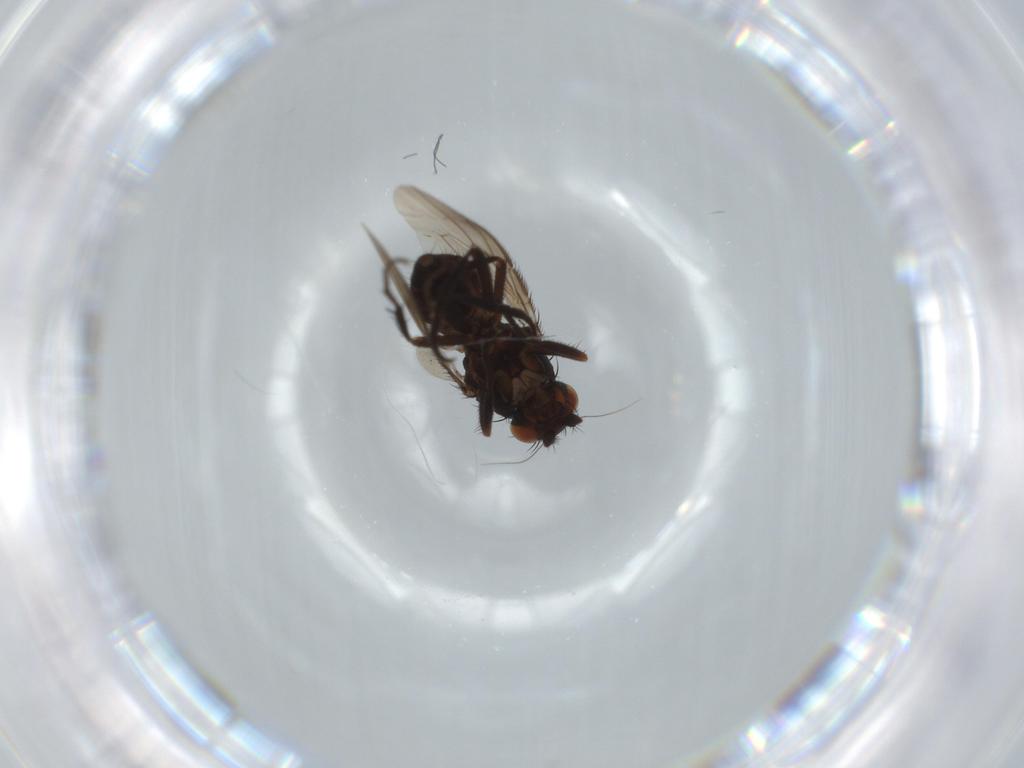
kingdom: Animalia
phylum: Arthropoda
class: Insecta
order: Diptera
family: Sphaeroceridae
